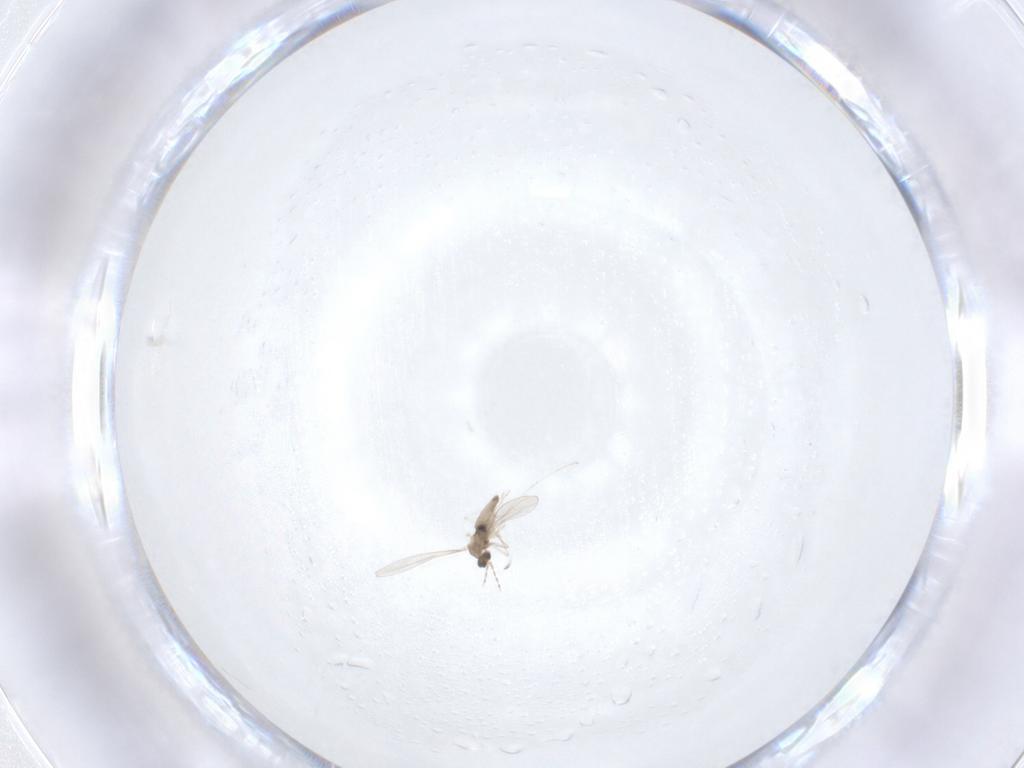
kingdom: Animalia
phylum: Arthropoda
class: Insecta
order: Diptera
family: Cecidomyiidae
